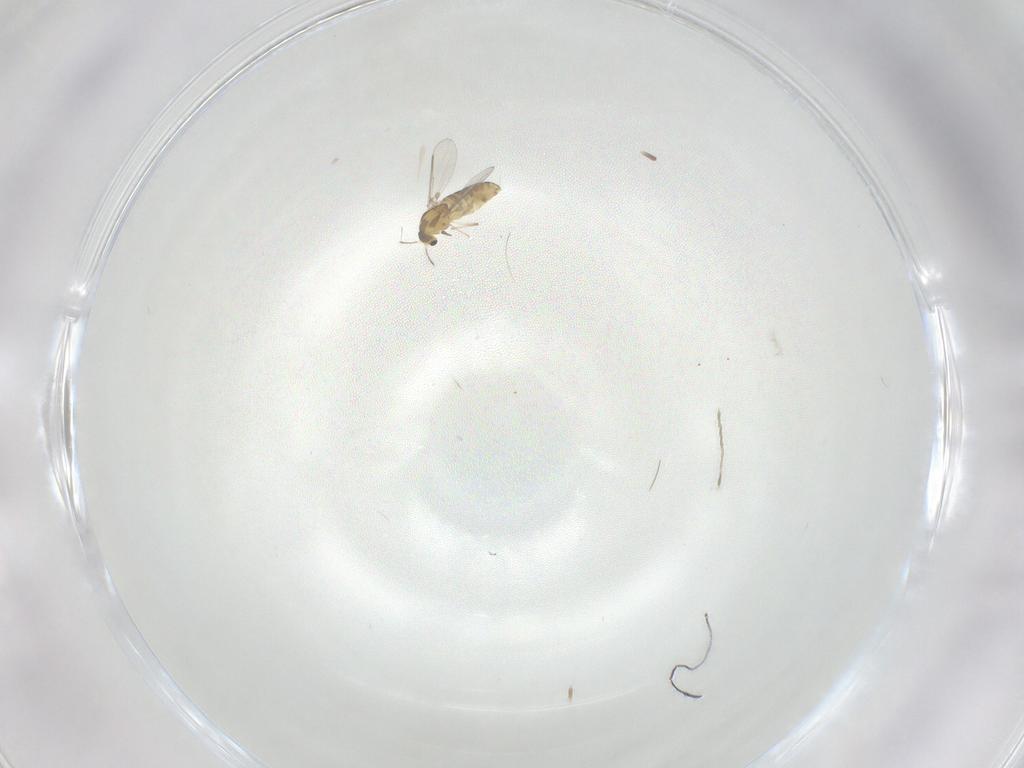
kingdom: Animalia
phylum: Arthropoda
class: Insecta
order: Diptera
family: Chironomidae
